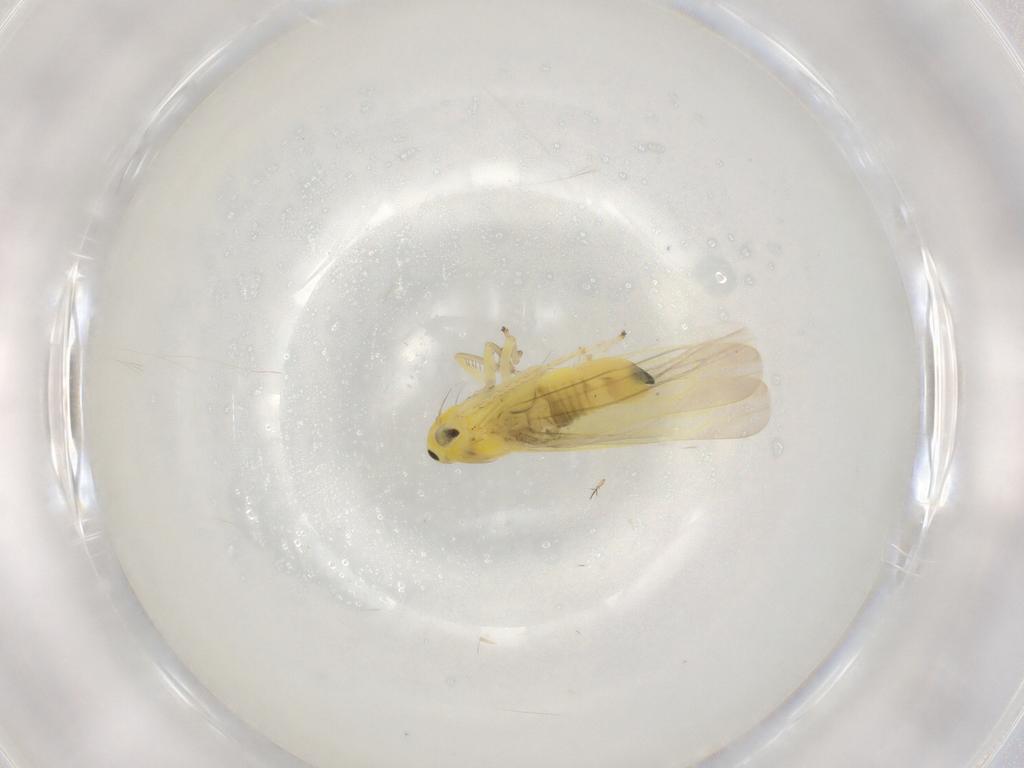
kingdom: Animalia
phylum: Arthropoda
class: Insecta
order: Hemiptera
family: Cicadellidae
